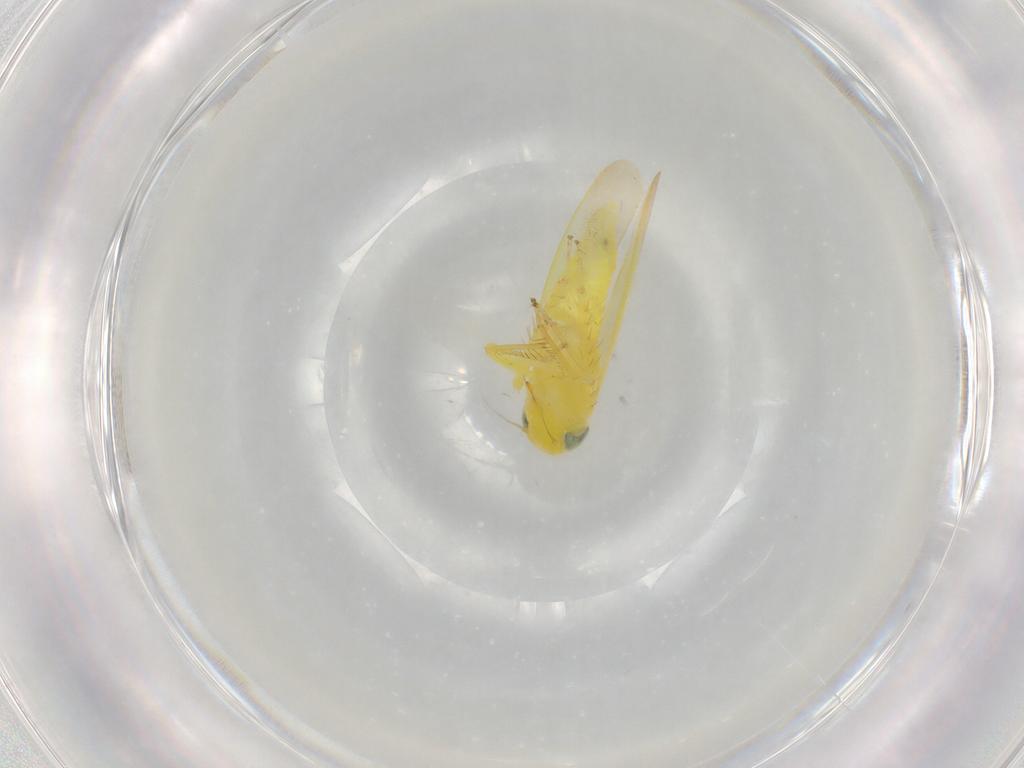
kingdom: Animalia
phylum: Arthropoda
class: Insecta
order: Hemiptera
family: Cicadellidae
